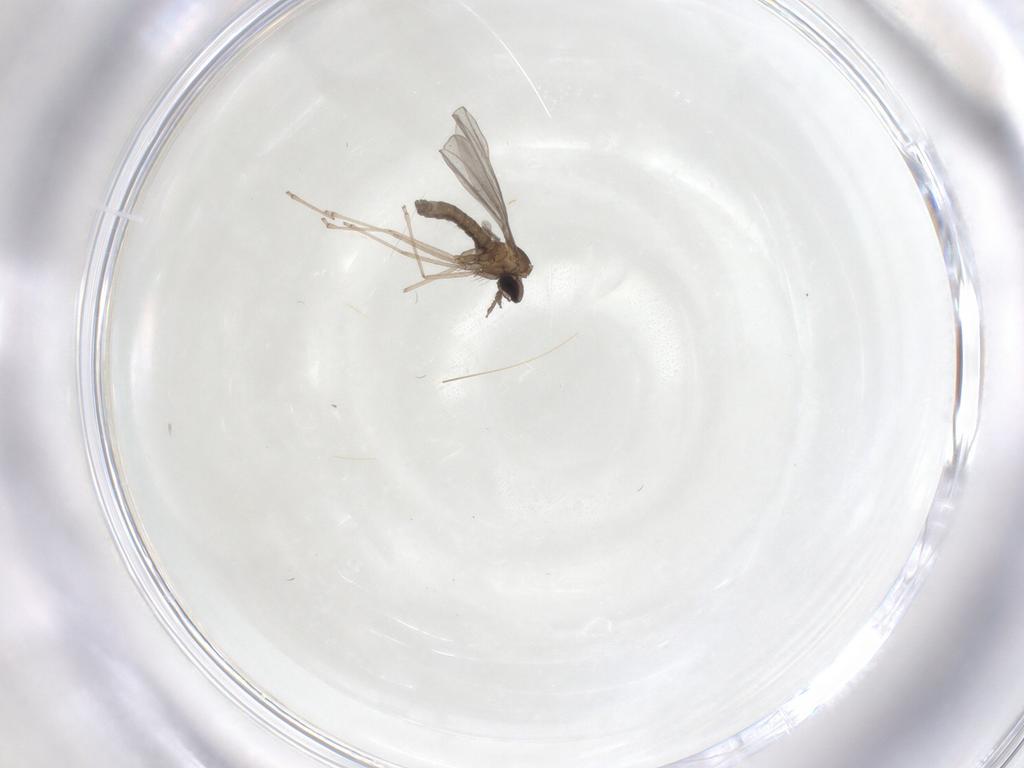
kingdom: Animalia
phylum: Arthropoda
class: Insecta
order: Diptera
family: Cecidomyiidae
